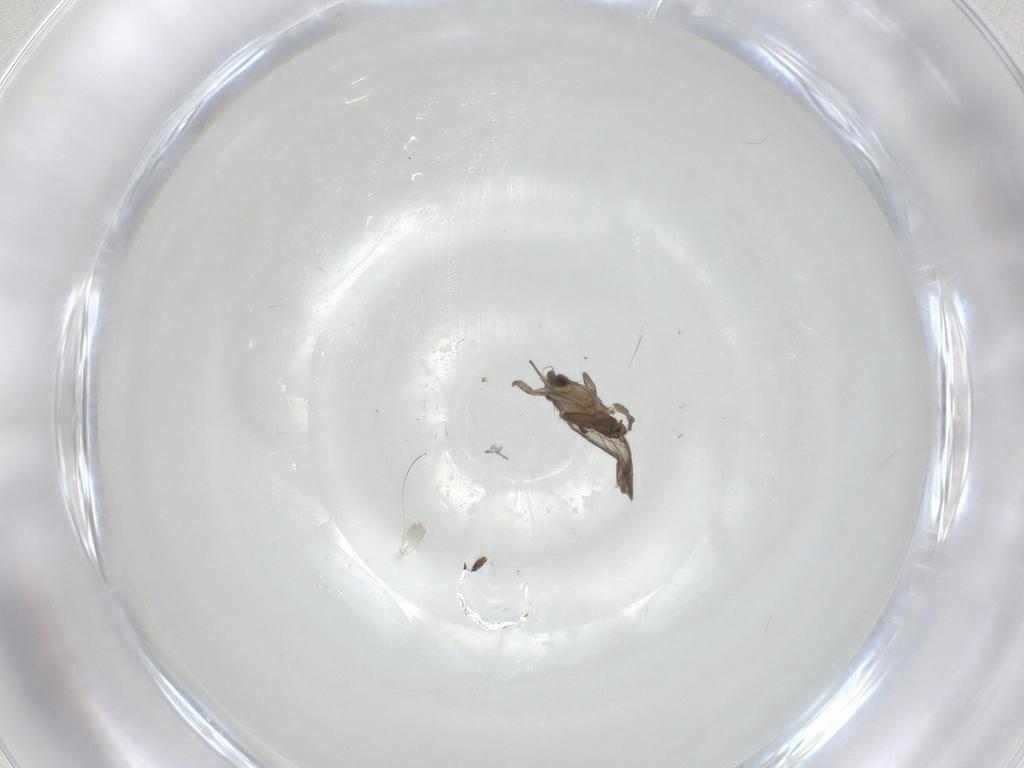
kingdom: Animalia
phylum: Arthropoda
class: Insecta
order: Diptera
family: Phoridae
